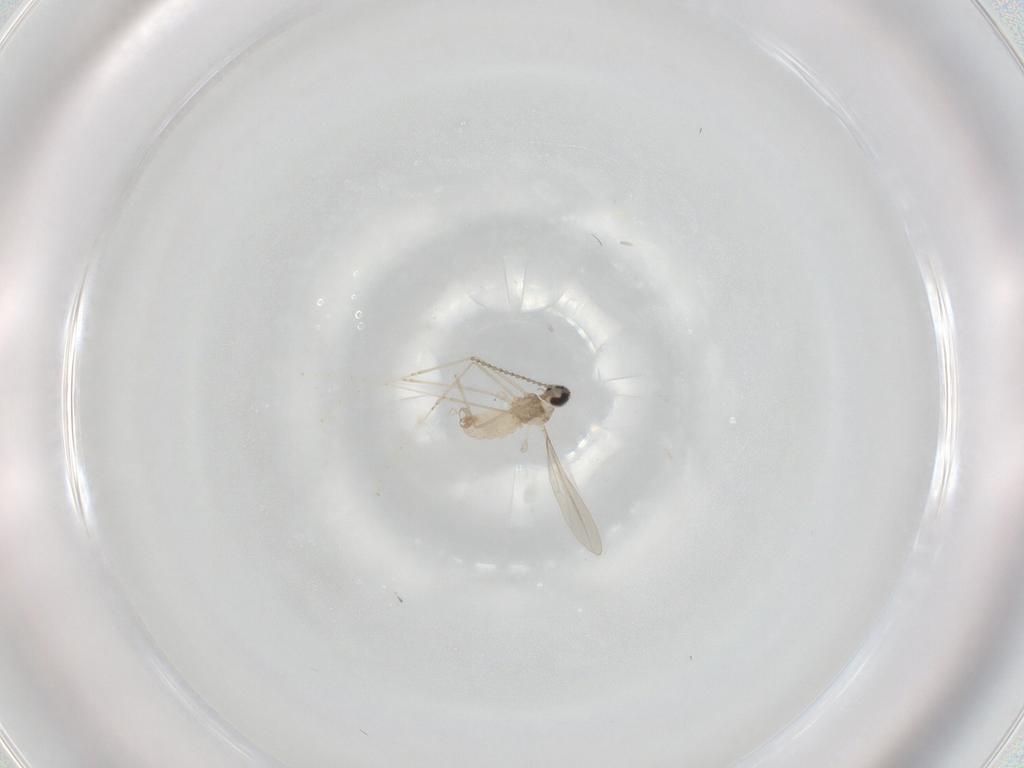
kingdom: Animalia
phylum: Arthropoda
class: Insecta
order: Diptera
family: Cecidomyiidae
